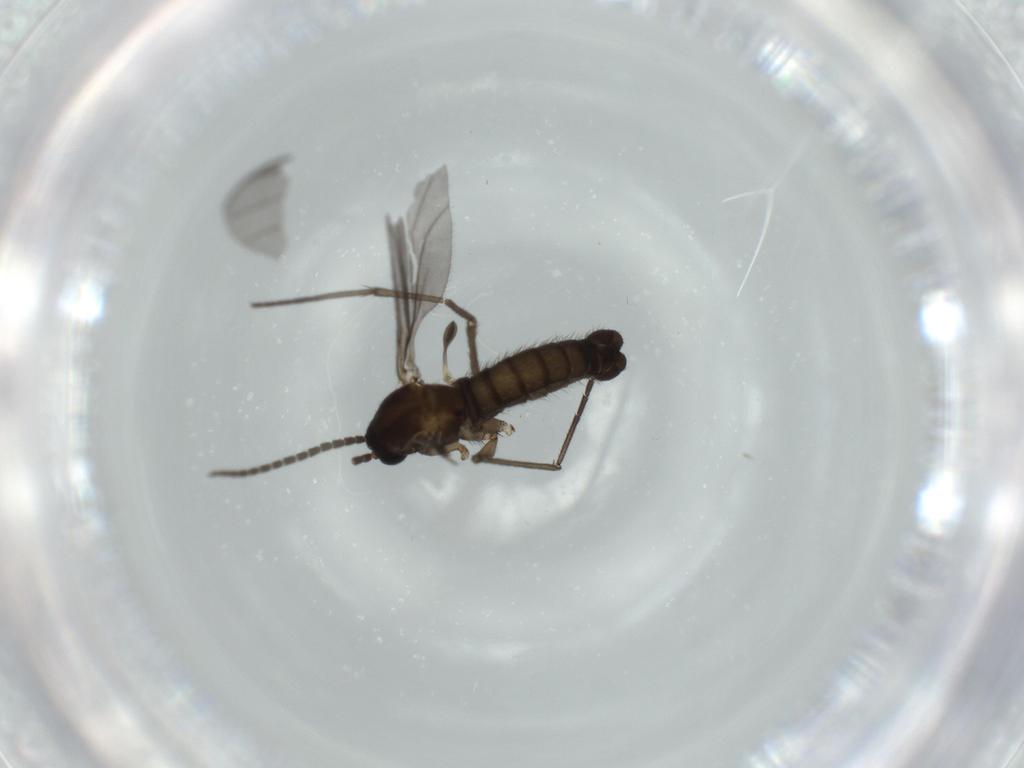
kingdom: Animalia
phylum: Arthropoda
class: Insecta
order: Diptera
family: Sciaridae
